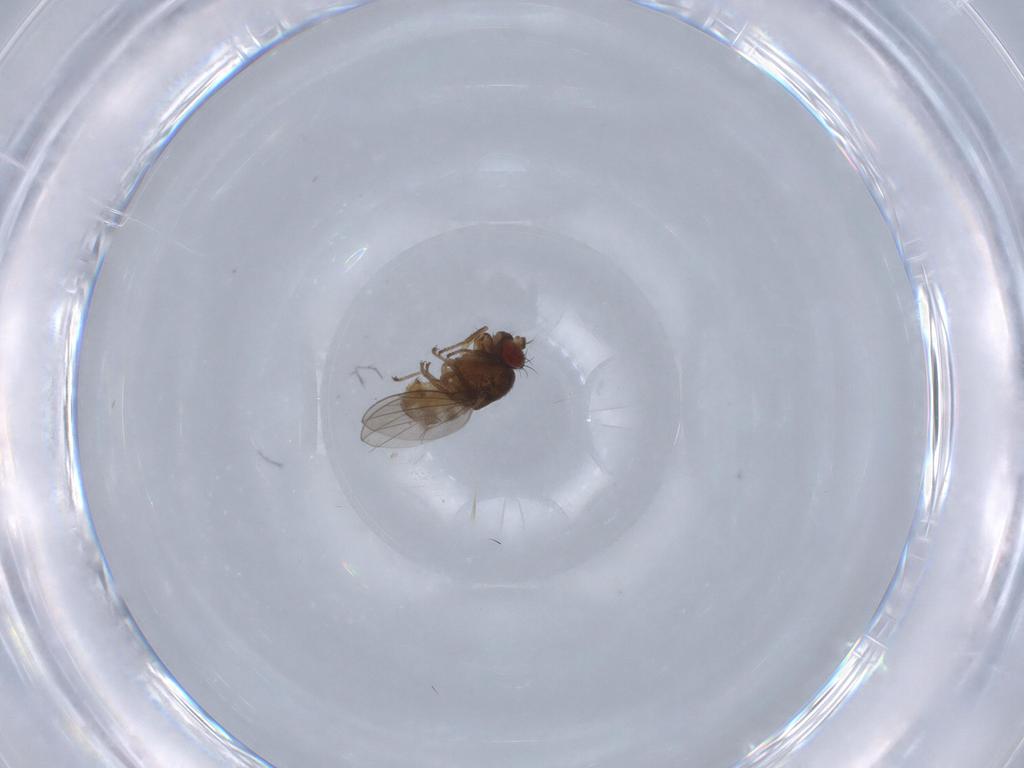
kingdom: Animalia
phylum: Arthropoda
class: Insecta
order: Diptera
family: Ephydridae
